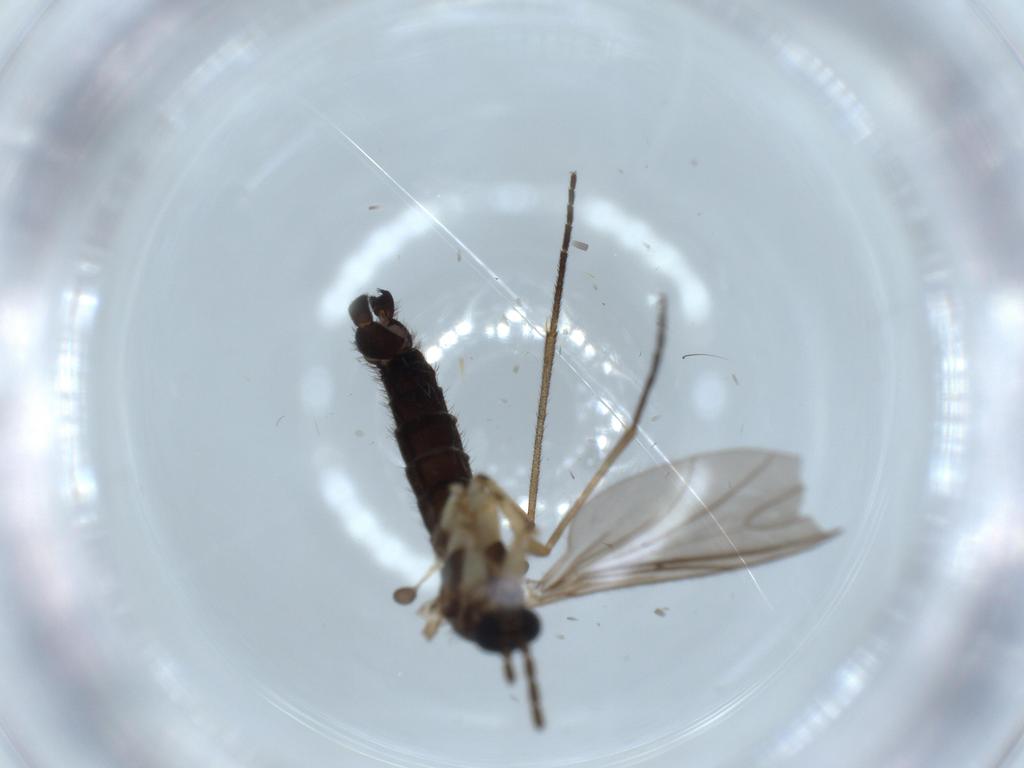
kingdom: Animalia
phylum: Arthropoda
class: Insecta
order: Diptera
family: Sciaridae
